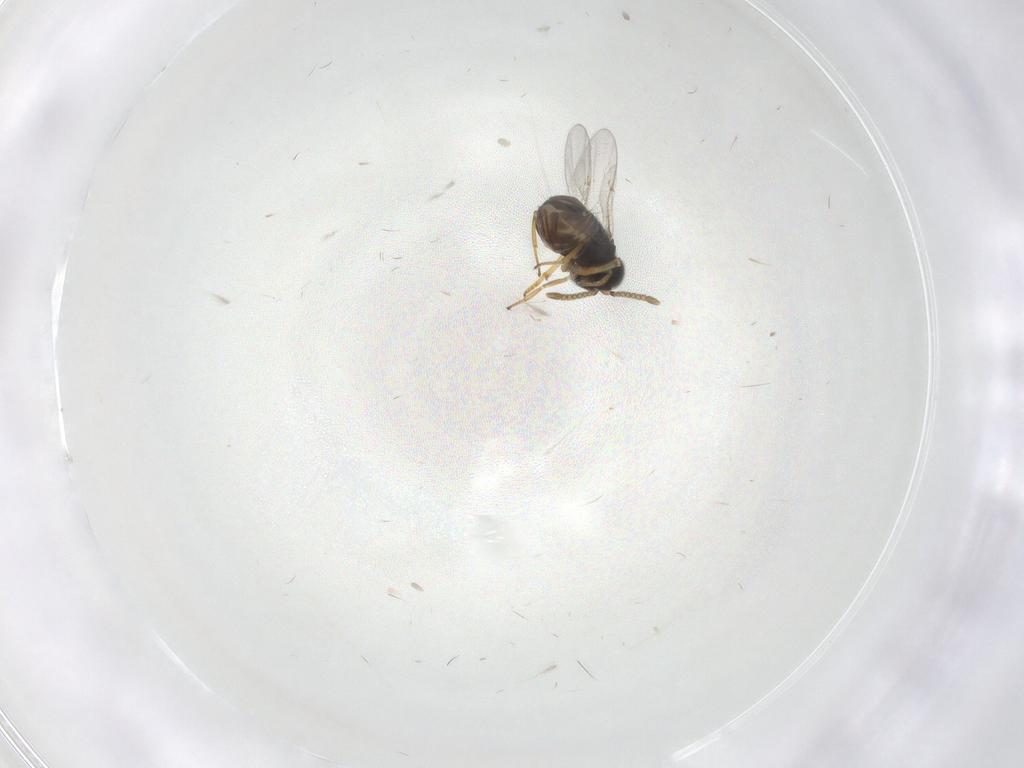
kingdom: Animalia
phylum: Arthropoda
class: Insecta
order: Hymenoptera
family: Encyrtidae
